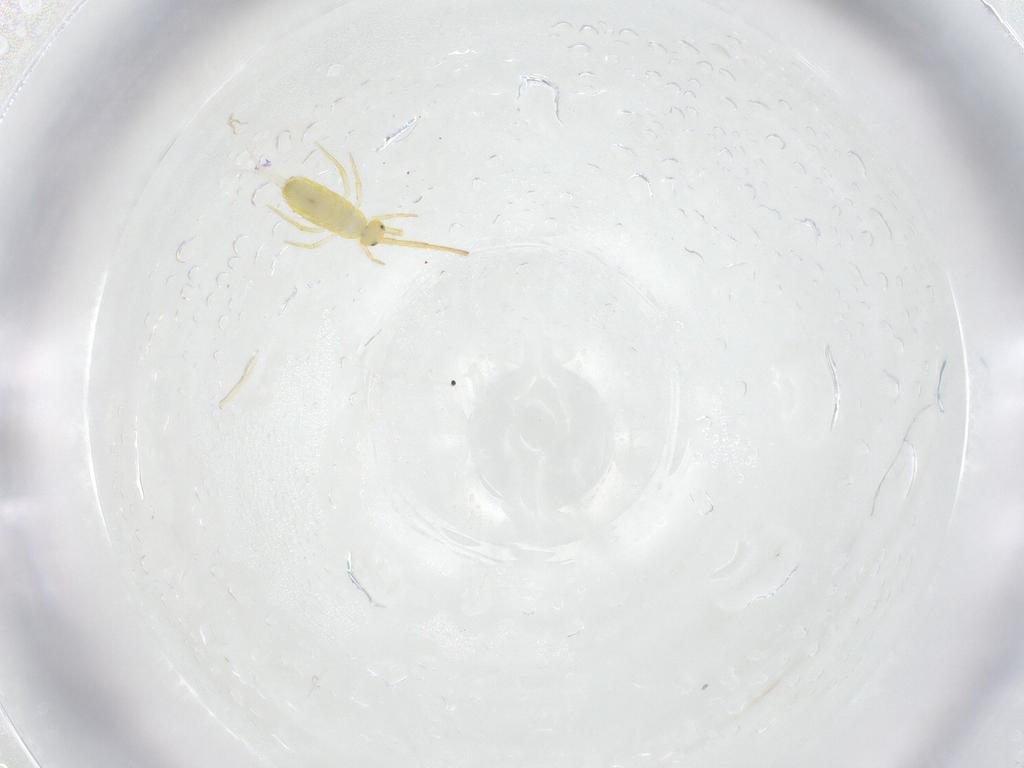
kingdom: Animalia
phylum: Arthropoda
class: Collembola
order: Entomobryomorpha
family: Paronellidae
